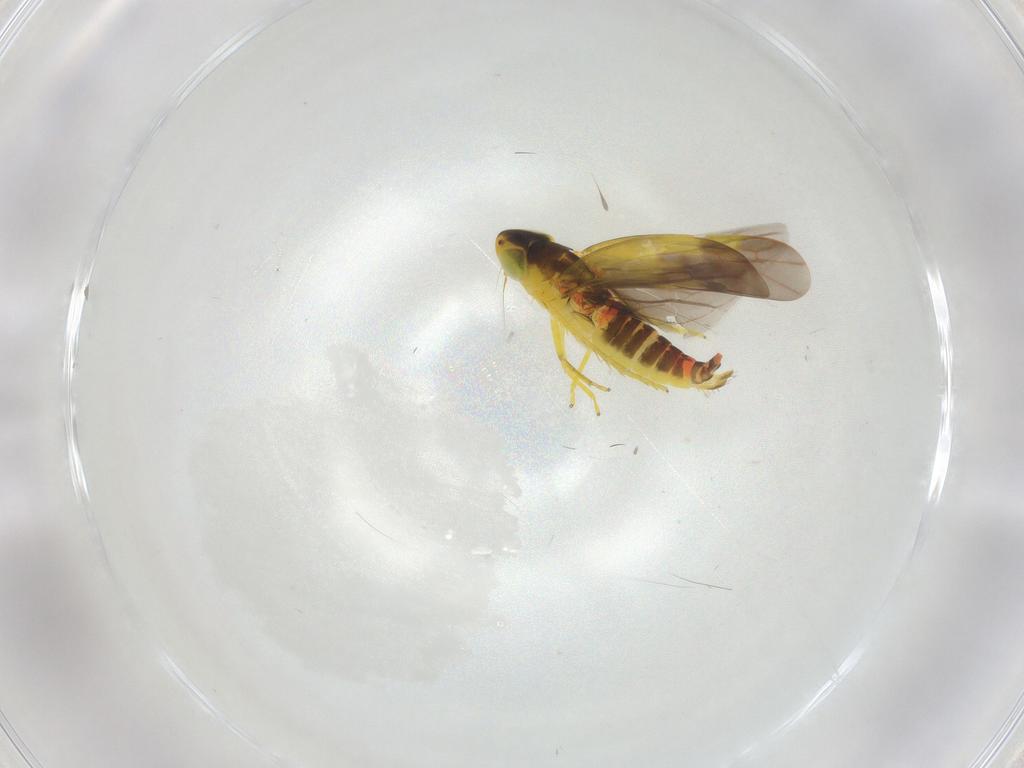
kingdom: Animalia
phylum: Arthropoda
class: Insecta
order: Hemiptera
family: Cicadellidae
